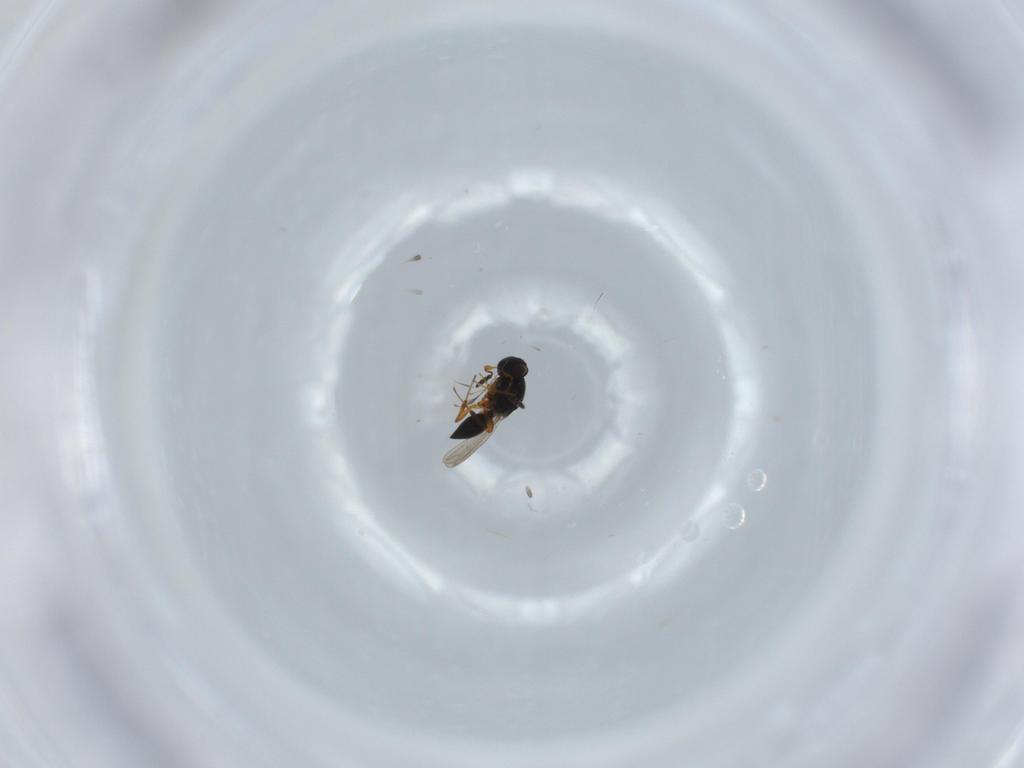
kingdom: Animalia
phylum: Arthropoda
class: Insecta
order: Hymenoptera
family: Platygastridae
